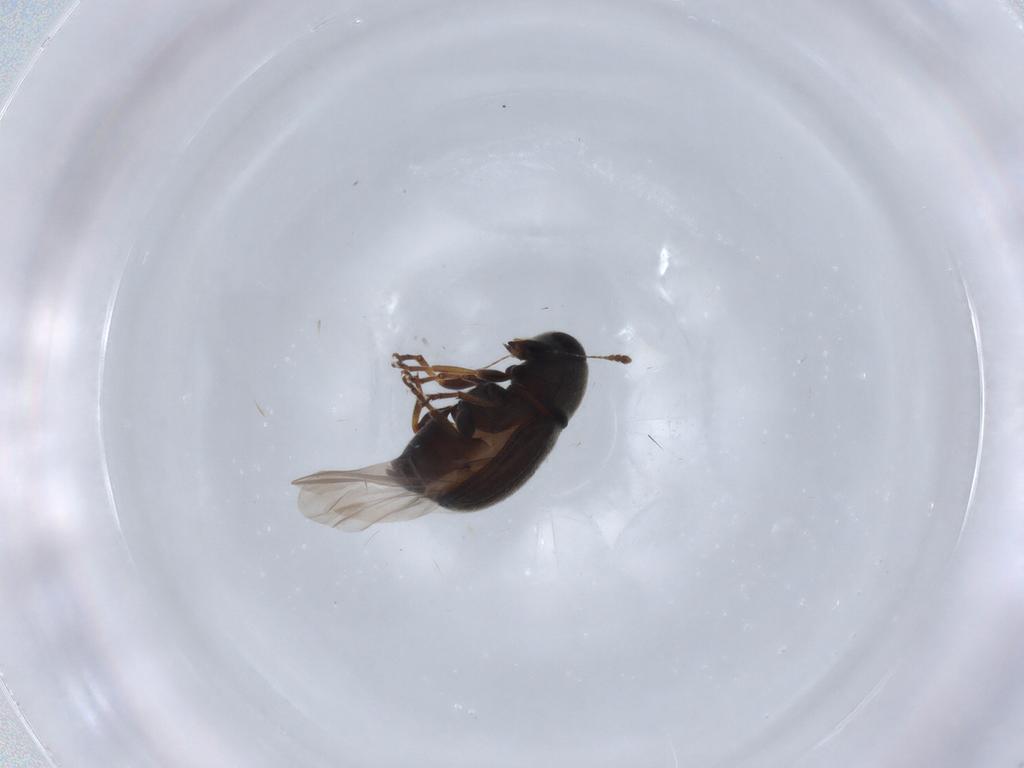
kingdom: Animalia
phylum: Arthropoda
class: Insecta
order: Coleoptera
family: Anthribidae
